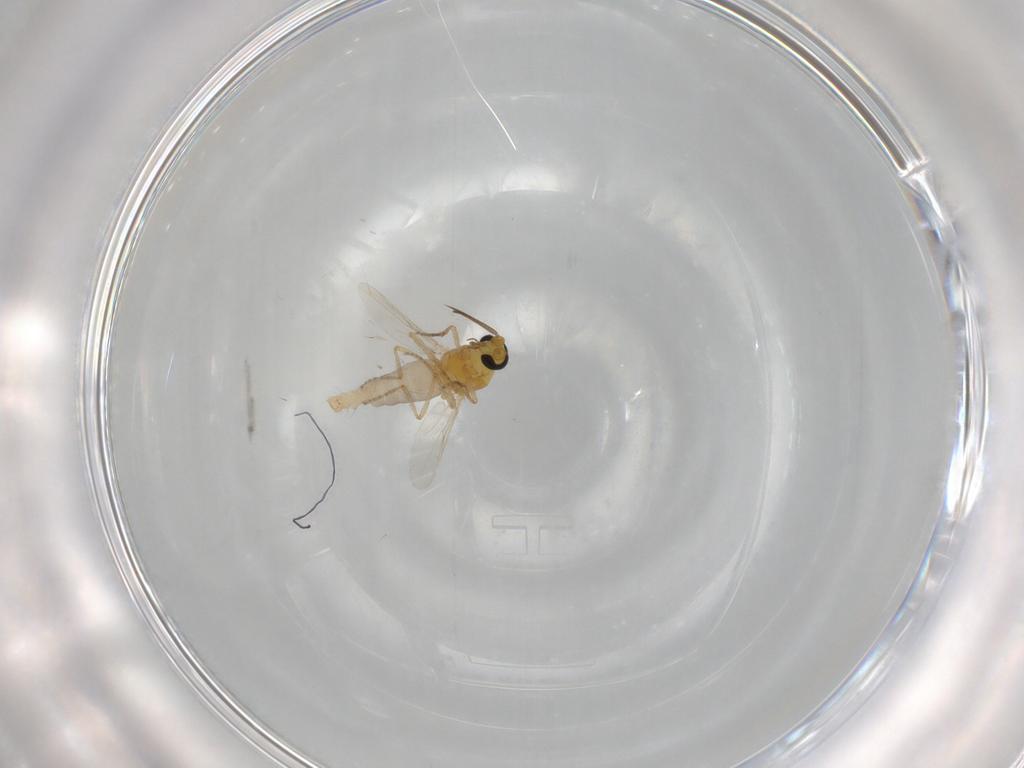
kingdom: Animalia
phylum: Arthropoda
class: Insecta
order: Diptera
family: Ceratopogonidae
